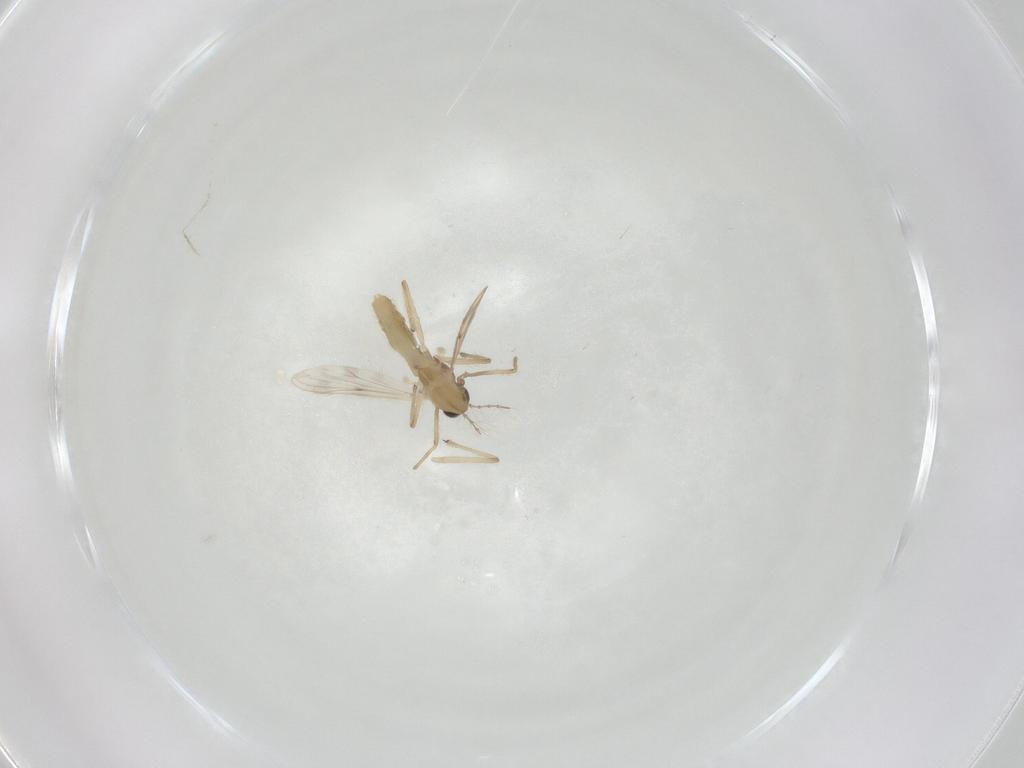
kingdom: Animalia
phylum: Arthropoda
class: Insecta
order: Diptera
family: Chironomidae
